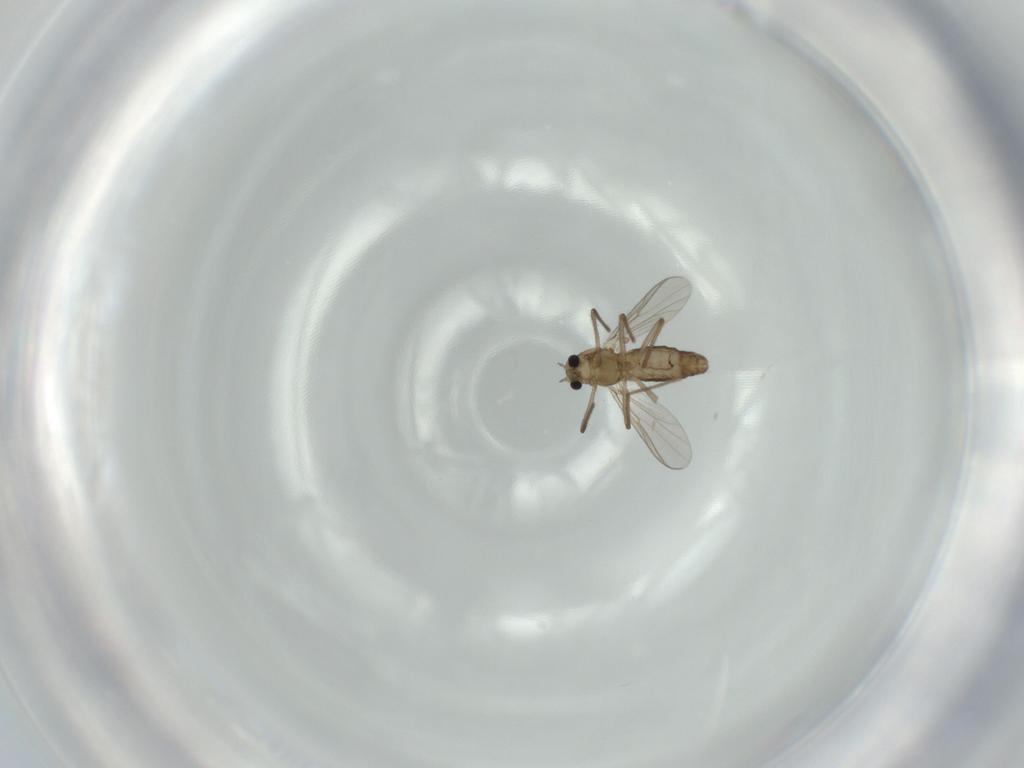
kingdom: Animalia
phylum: Arthropoda
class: Insecta
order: Diptera
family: Chironomidae
